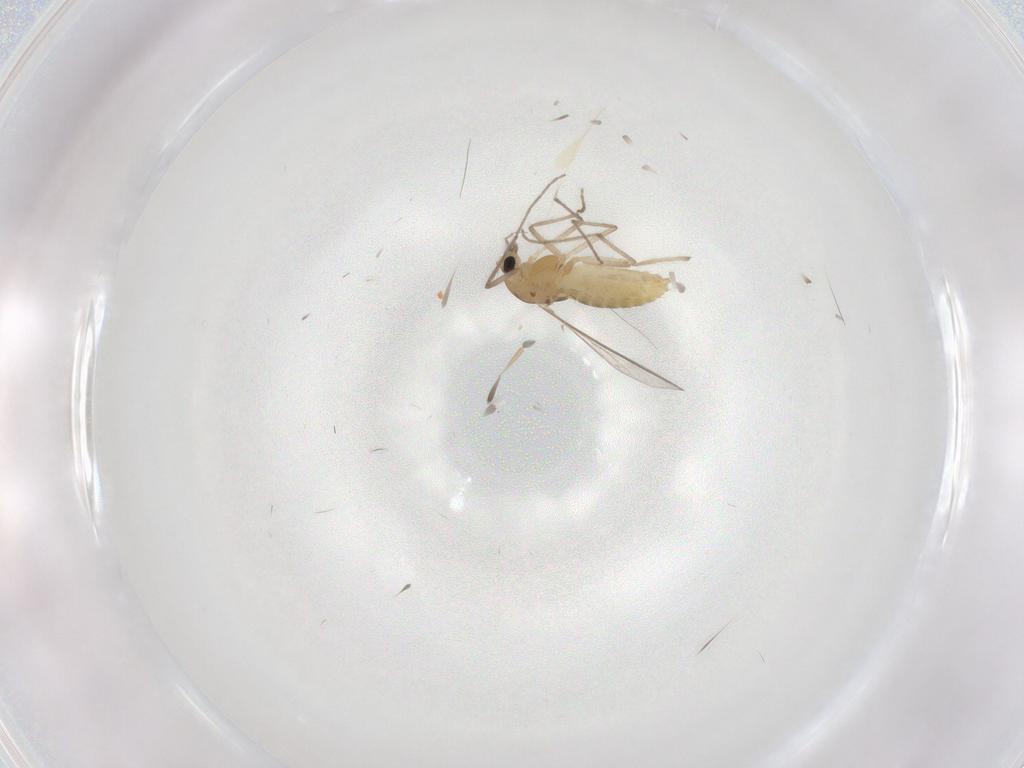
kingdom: Animalia
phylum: Arthropoda
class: Insecta
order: Diptera
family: Chironomidae
